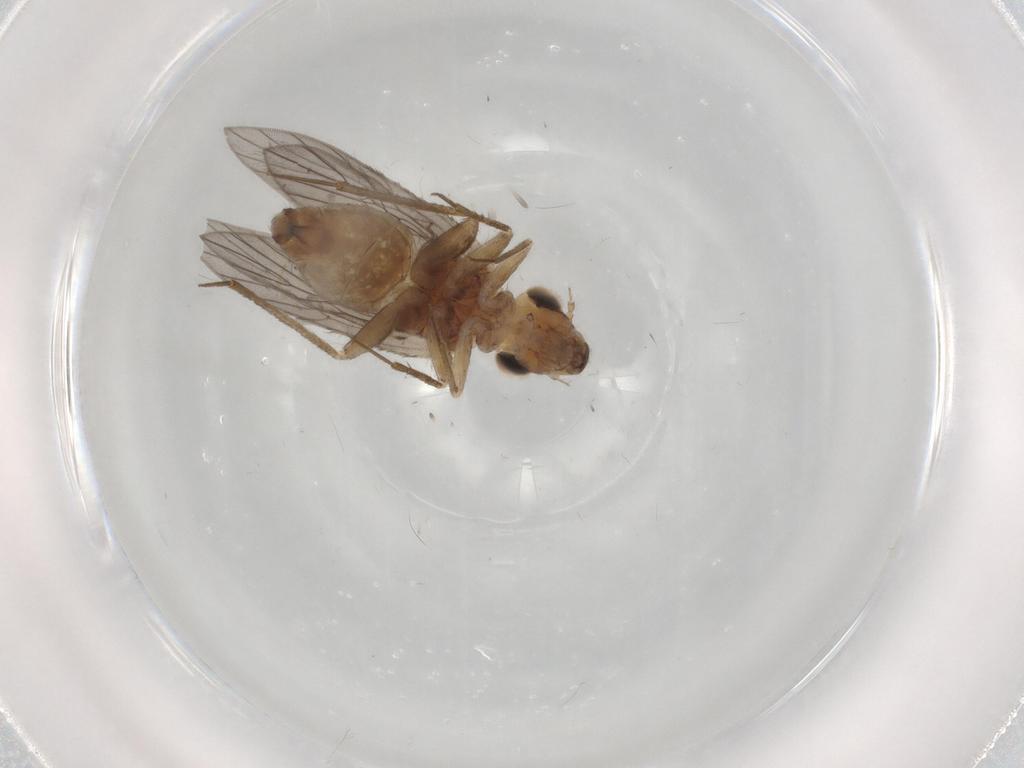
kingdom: Animalia
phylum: Arthropoda
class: Insecta
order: Psocodea
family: Lepidopsocidae
